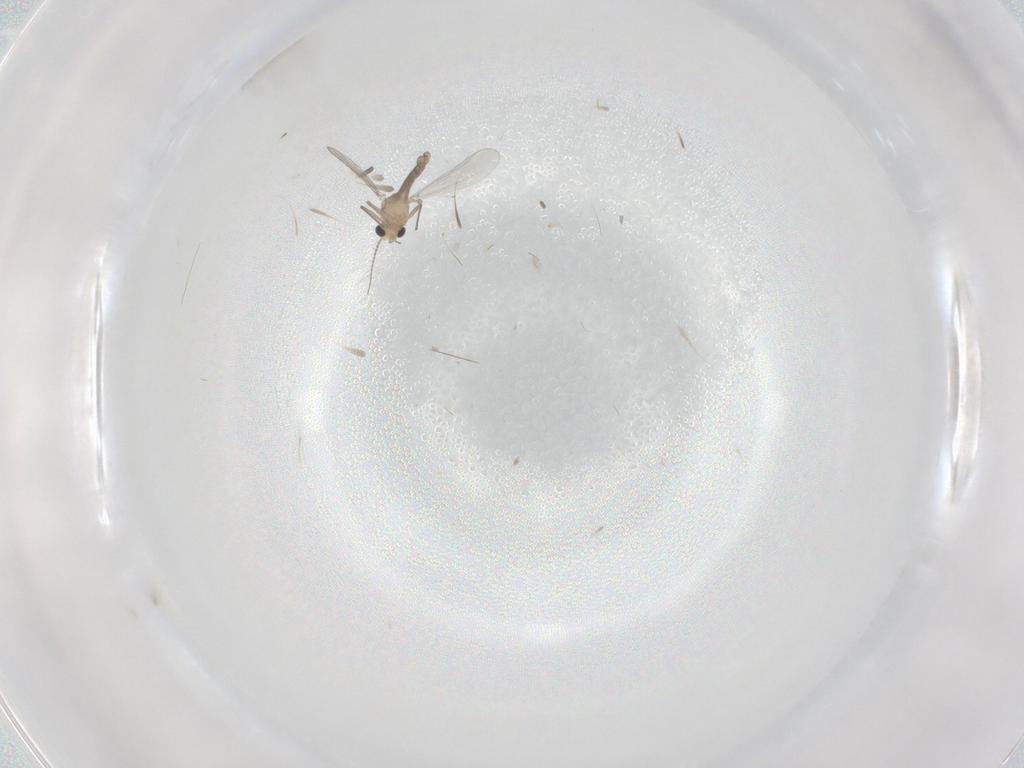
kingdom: Animalia
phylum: Arthropoda
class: Insecta
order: Diptera
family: Chironomidae
